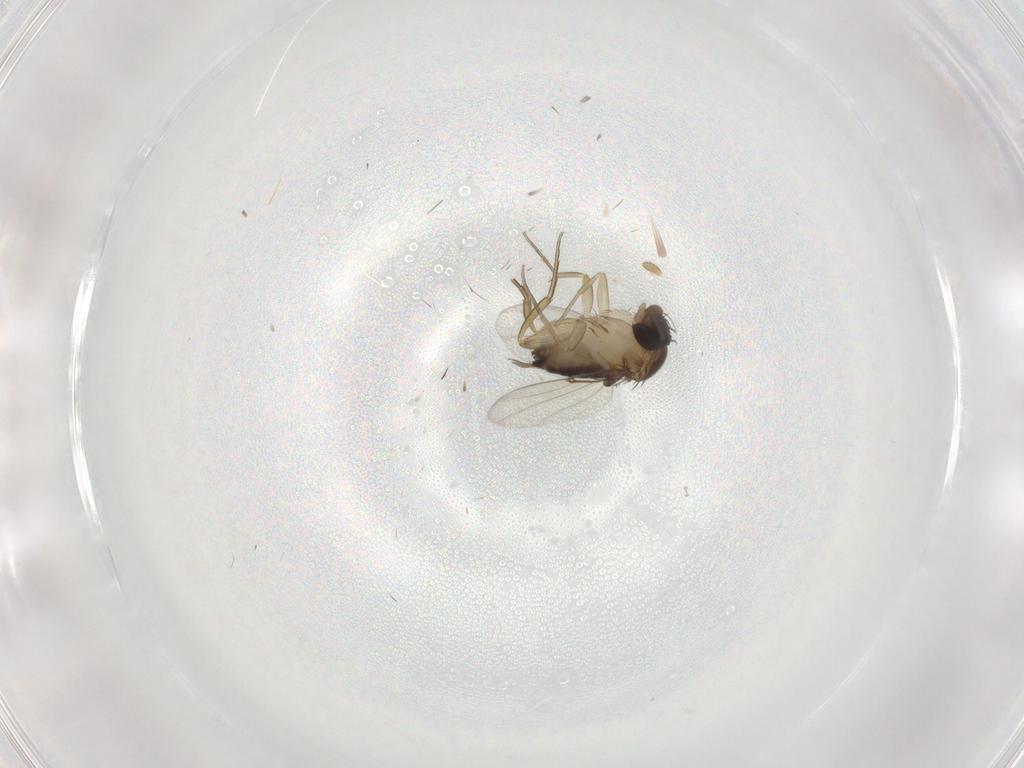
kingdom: Animalia
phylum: Arthropoda
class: Insecta
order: Diptera
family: Phoridae
